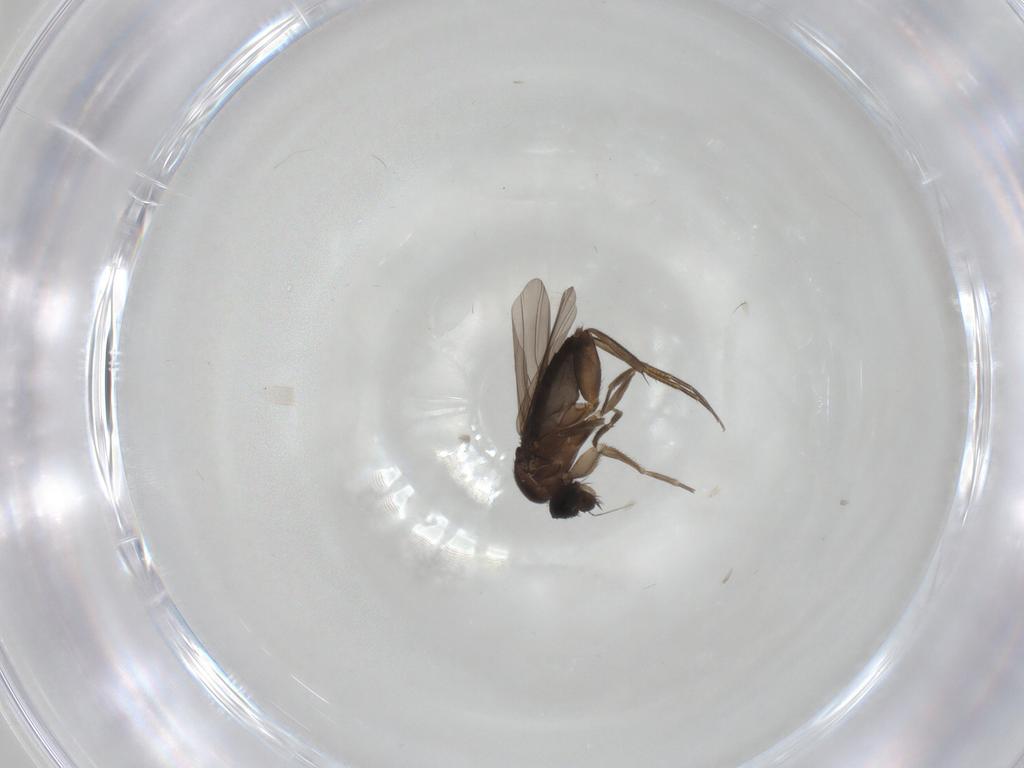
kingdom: Animalia
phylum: Arthropoda
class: Insecta
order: Diptera
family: Phoridae
